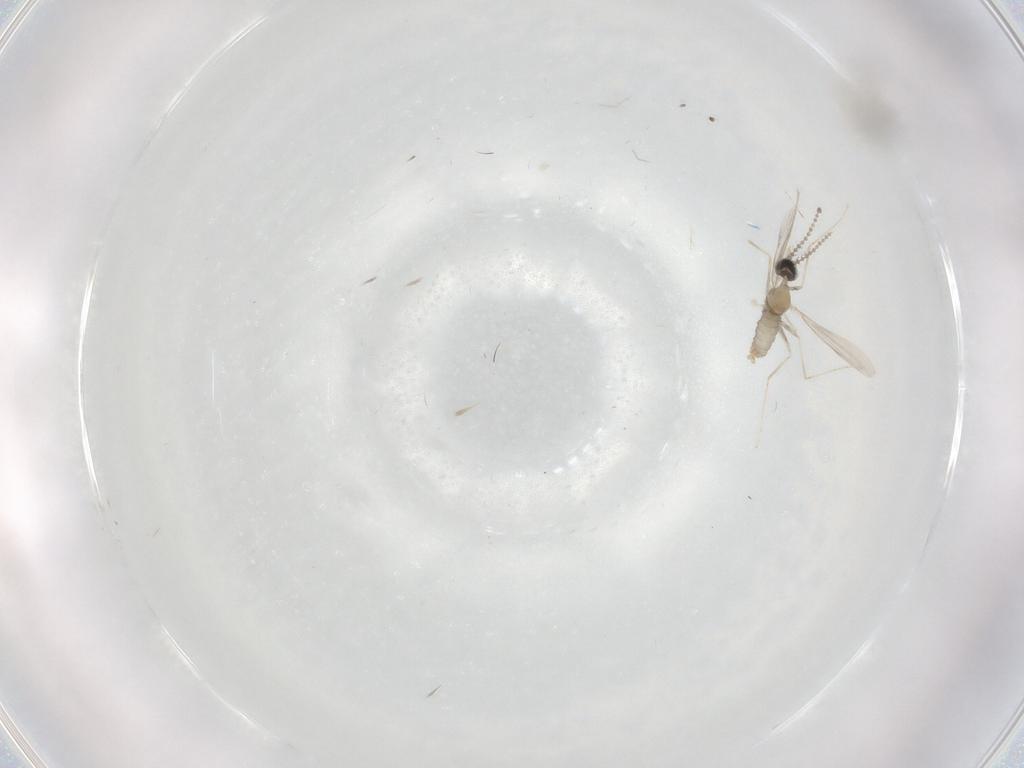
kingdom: Animalia
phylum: Arthropoda
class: Insecta
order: Diptera
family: Cecidomyiidae
